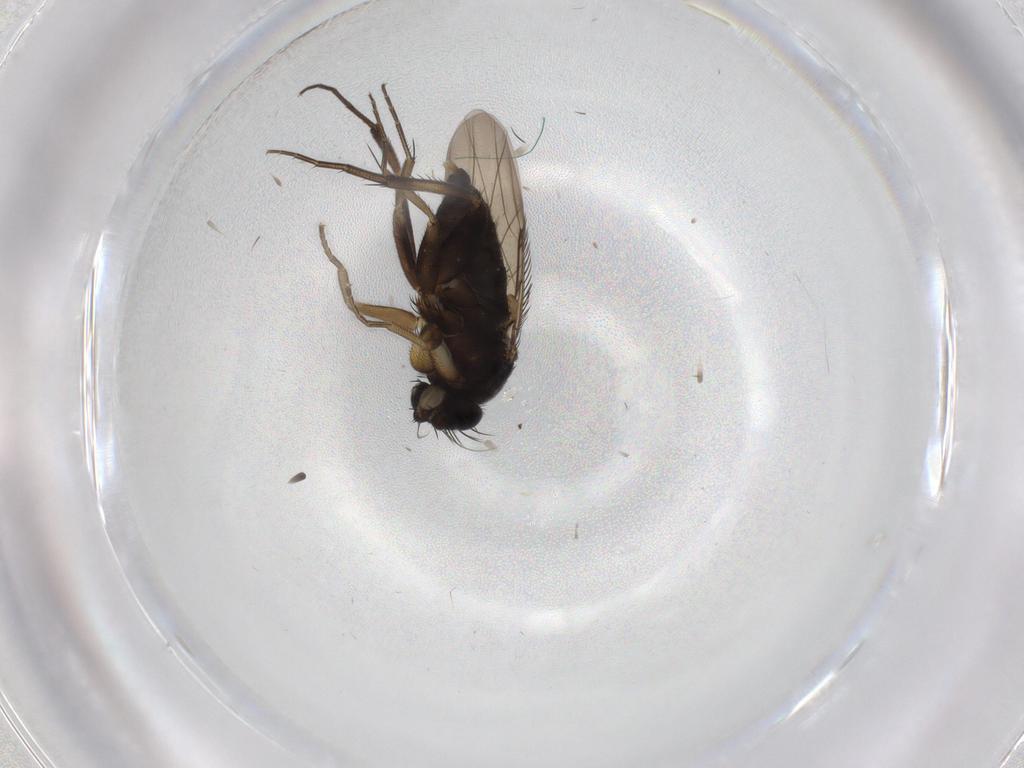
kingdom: Animalia
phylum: Arthropoda
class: Insecta
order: Diptera
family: Phoridae
